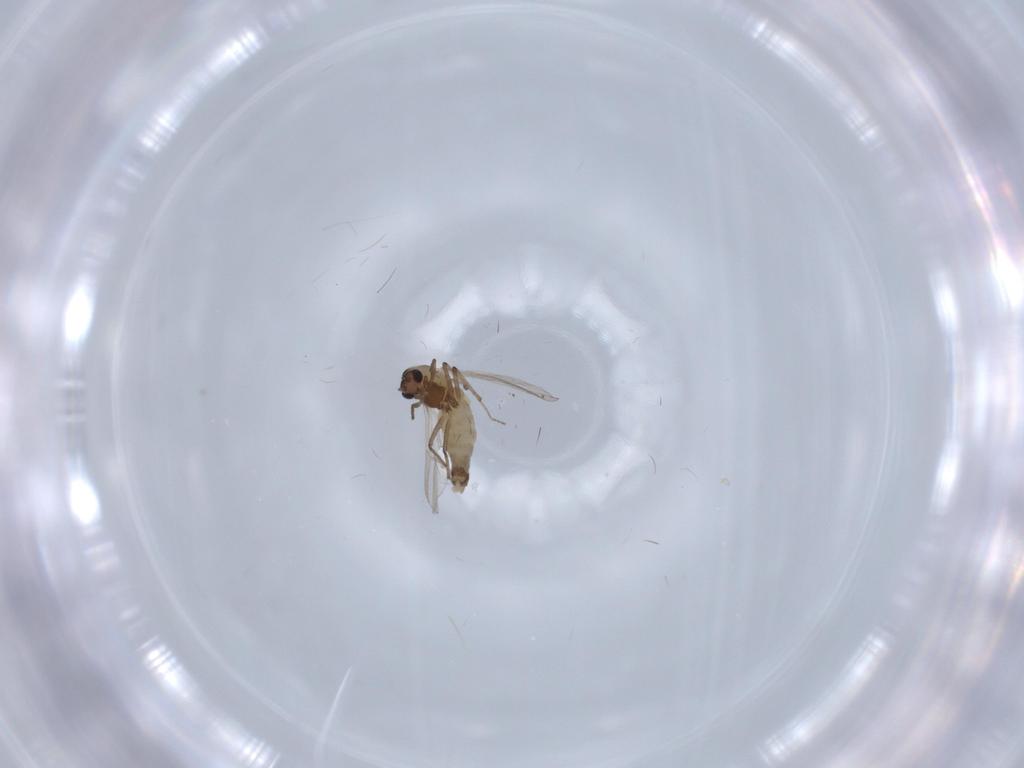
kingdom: Animalia
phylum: Arthropoda
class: Insecta
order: Diptera
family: Chironomidae
